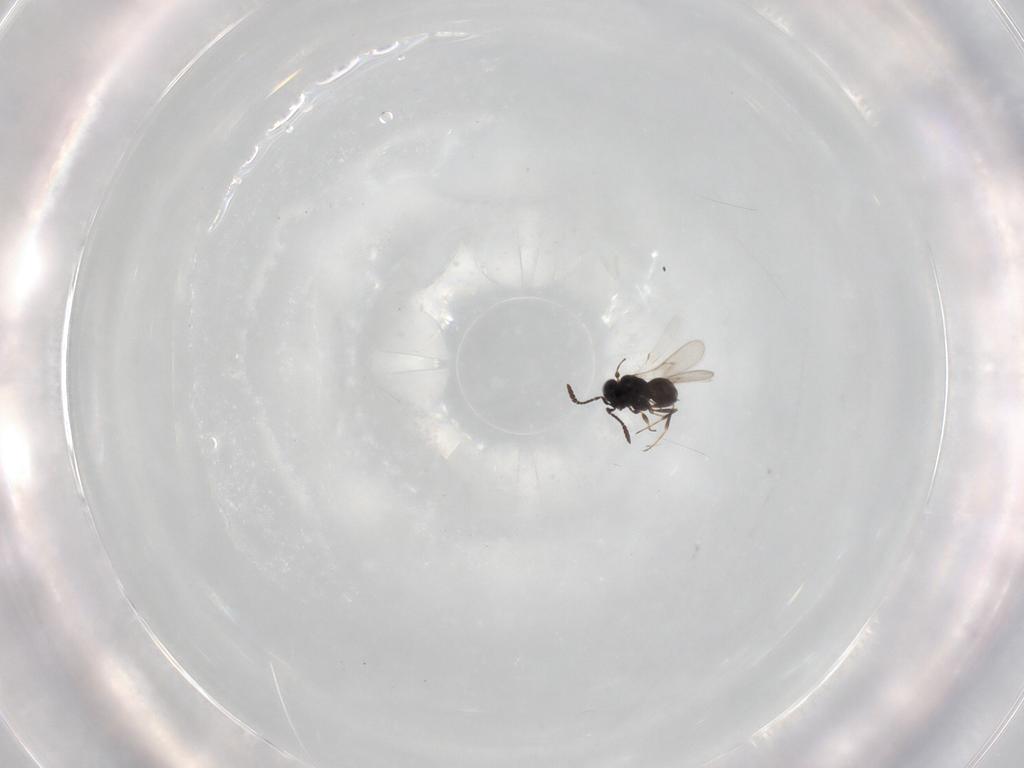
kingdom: Animalia
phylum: Arthropoda
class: Insecta
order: Hymenoptera
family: Scelionidae
